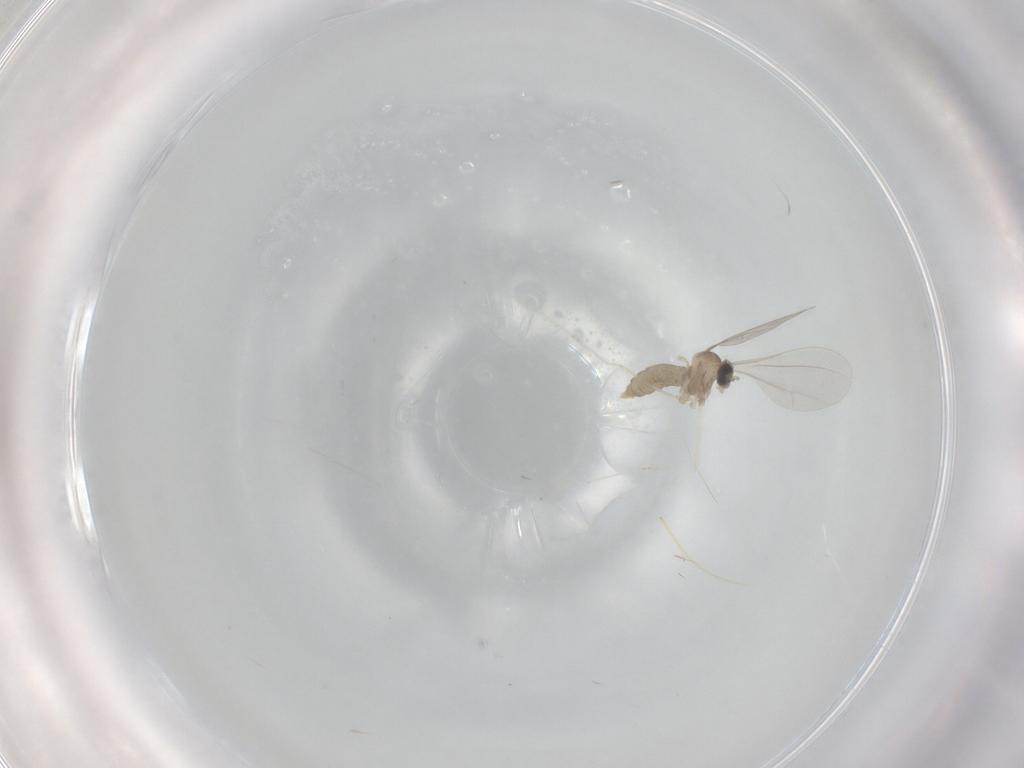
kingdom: Animalia
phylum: Arthropoda
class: Insecta
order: Diptera
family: Cecidomyiidae
